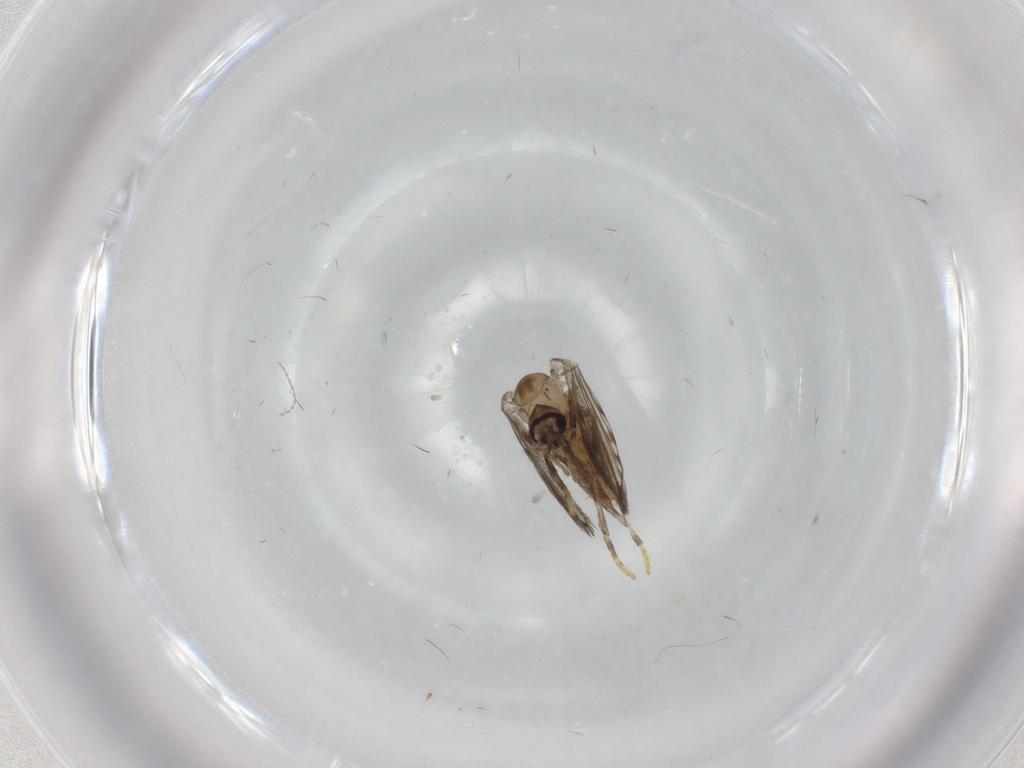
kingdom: Animalia
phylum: Arthropoda
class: Insecta
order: Diptera
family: Psychodidae
